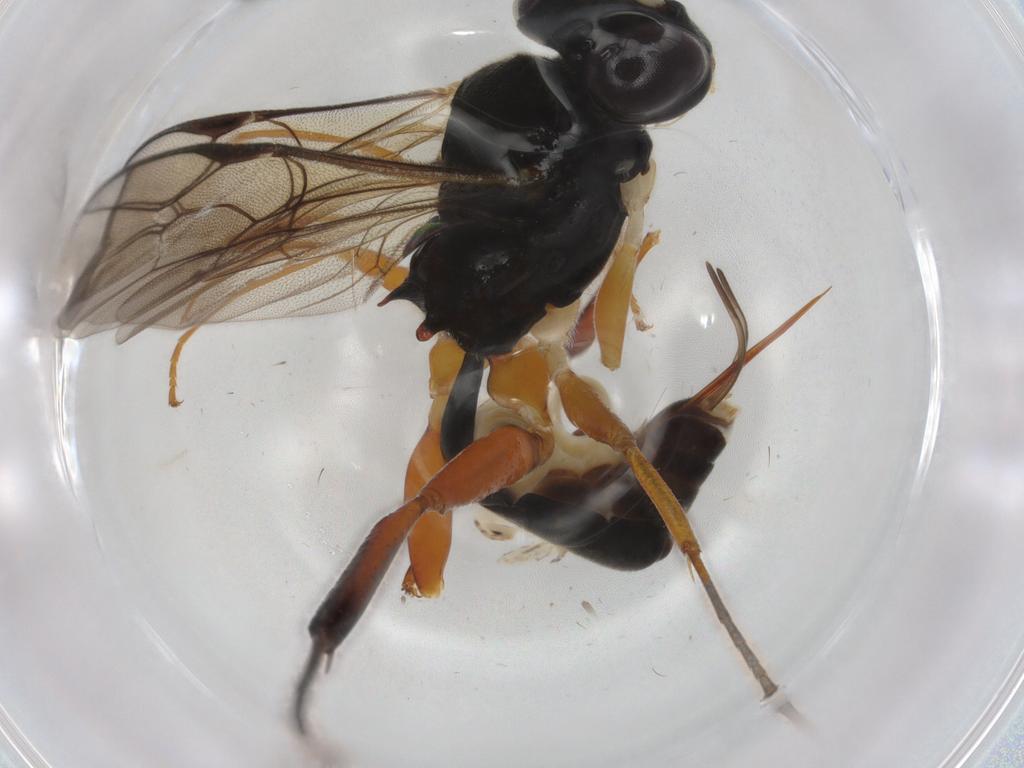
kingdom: Animalia
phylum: Arthropoda
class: Insecta
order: Hymenoptera
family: Ichneumonidae
